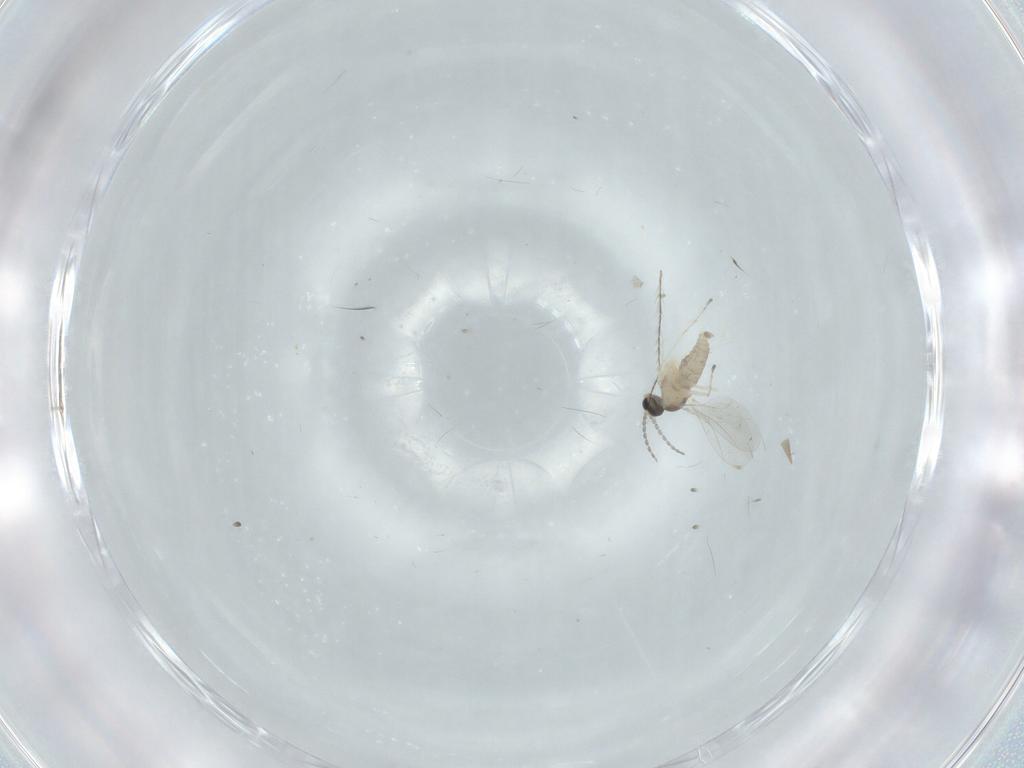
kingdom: Animalia
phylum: Arthropoda
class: Insecta
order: Diptera
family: Cecidomyiidae
